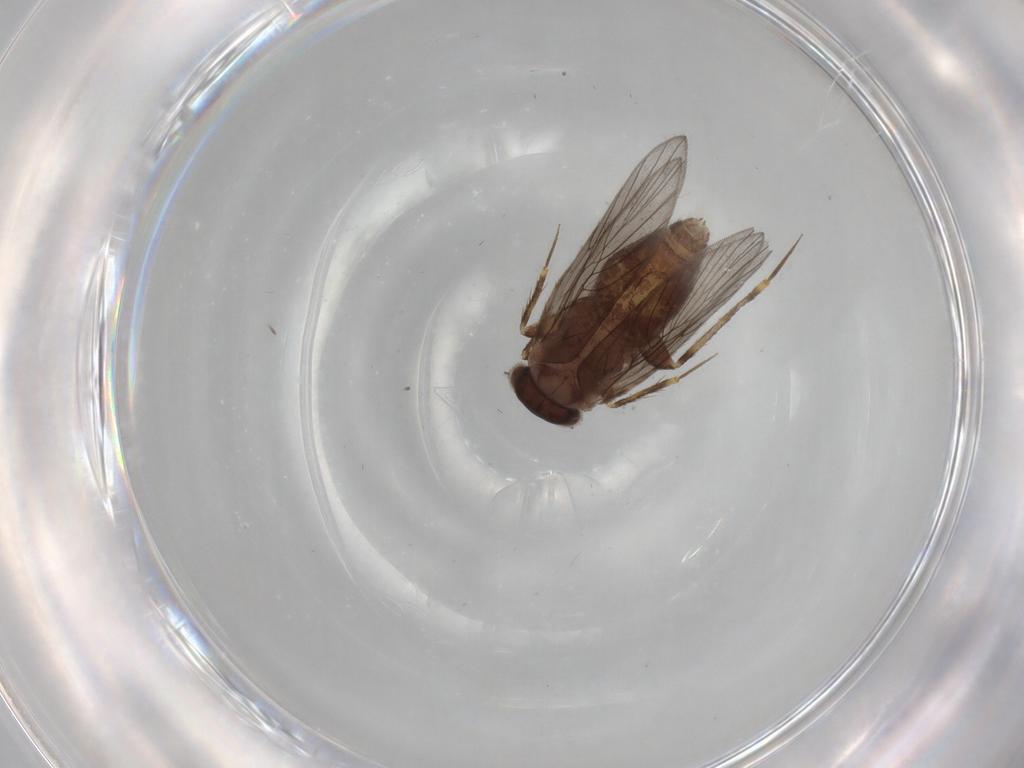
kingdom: Animalia
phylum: Arthropoda
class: Insecta
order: Psocodea
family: Lepidopsocidae
